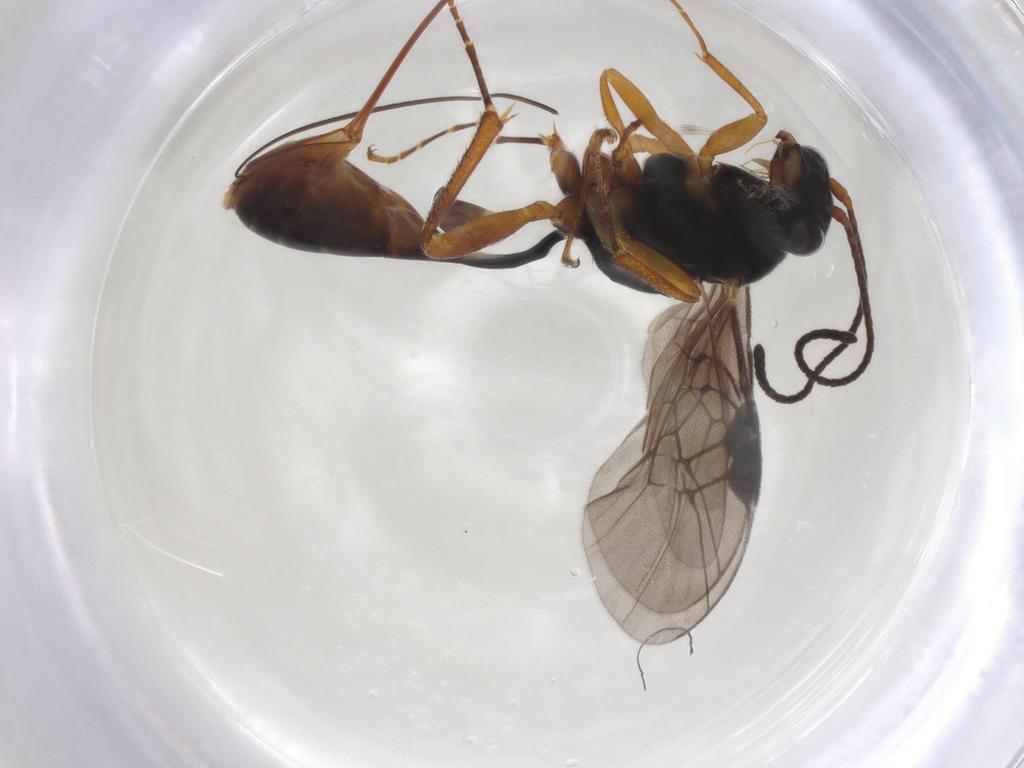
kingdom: Animalia
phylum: Arthropoda
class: Insecta
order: Hymenoptera
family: Ichneumonidae
